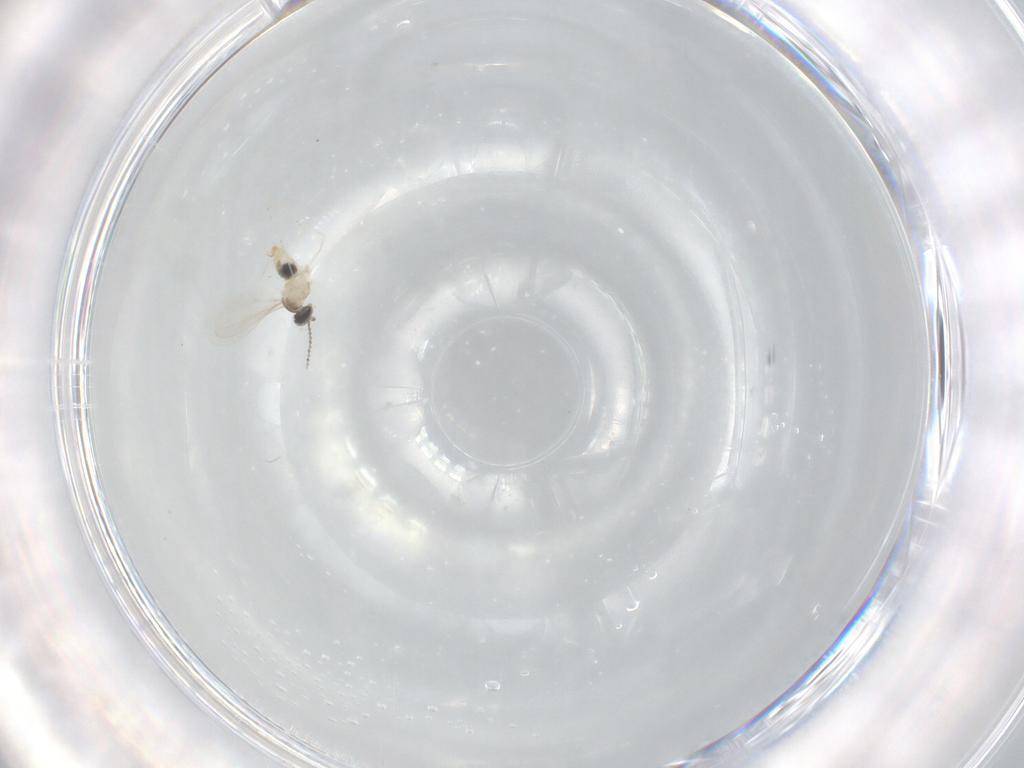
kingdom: Animalia
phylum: Arthropoda
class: Insecta
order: Diptera
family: Cecidomyiidae
